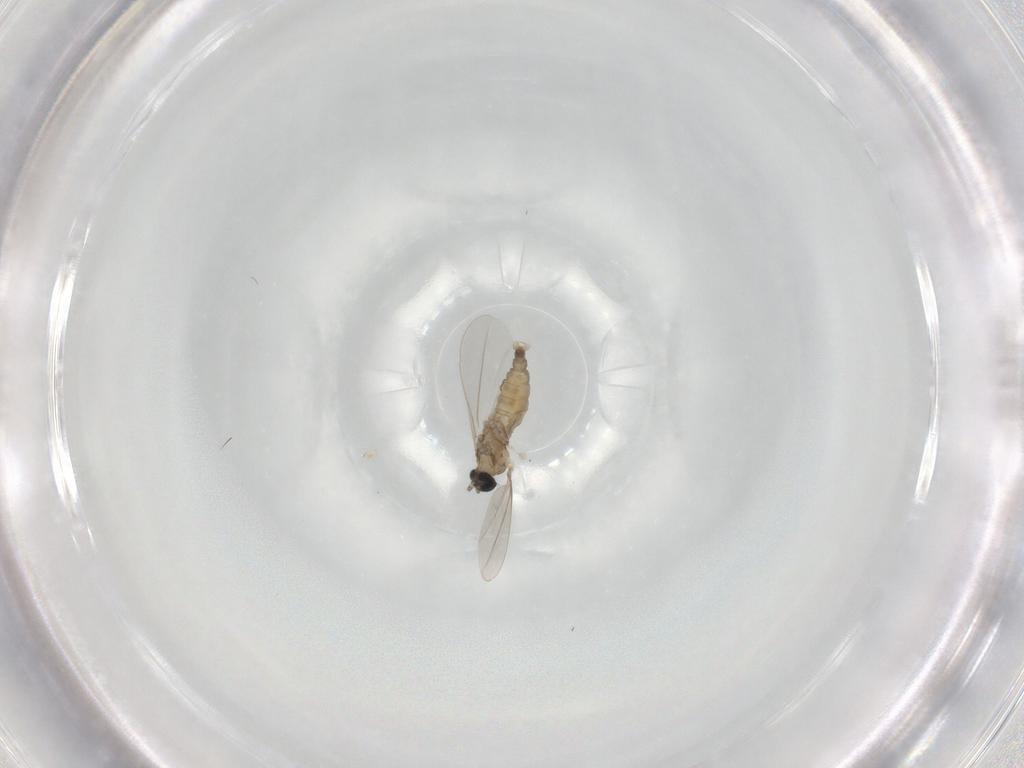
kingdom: Animalia
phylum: Arthropoda
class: Insecta
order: Diptera
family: Cecidomyiidae
